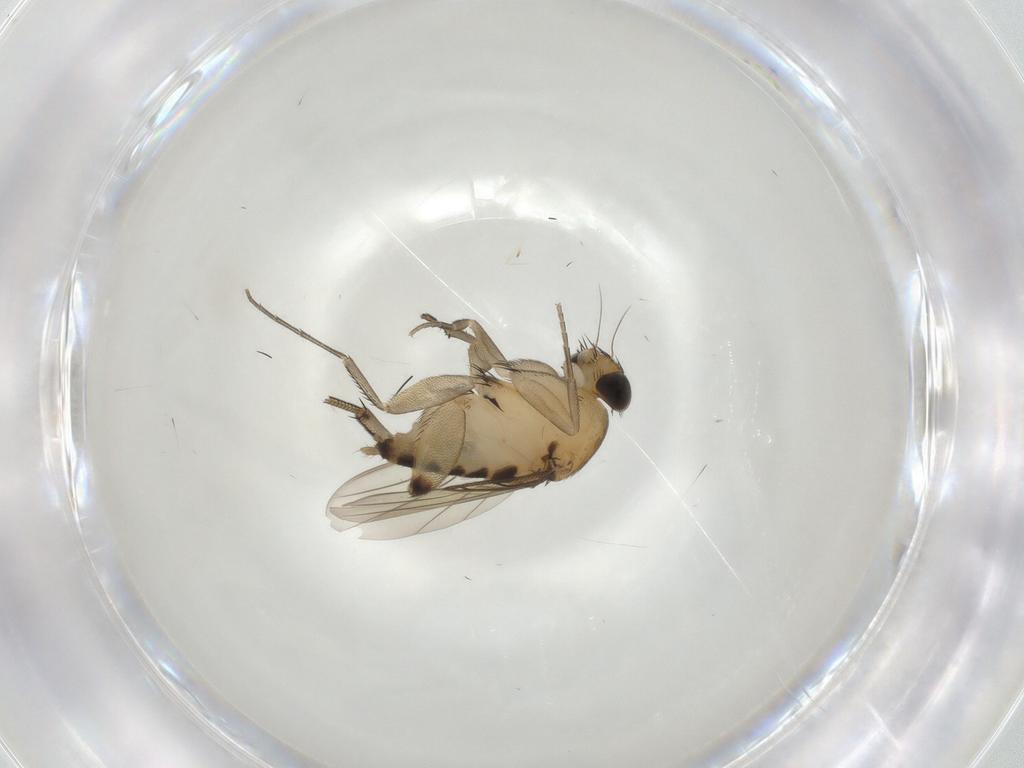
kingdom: Animalia
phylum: Arthropoda
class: Insecta
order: Diptera
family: Phoridae
